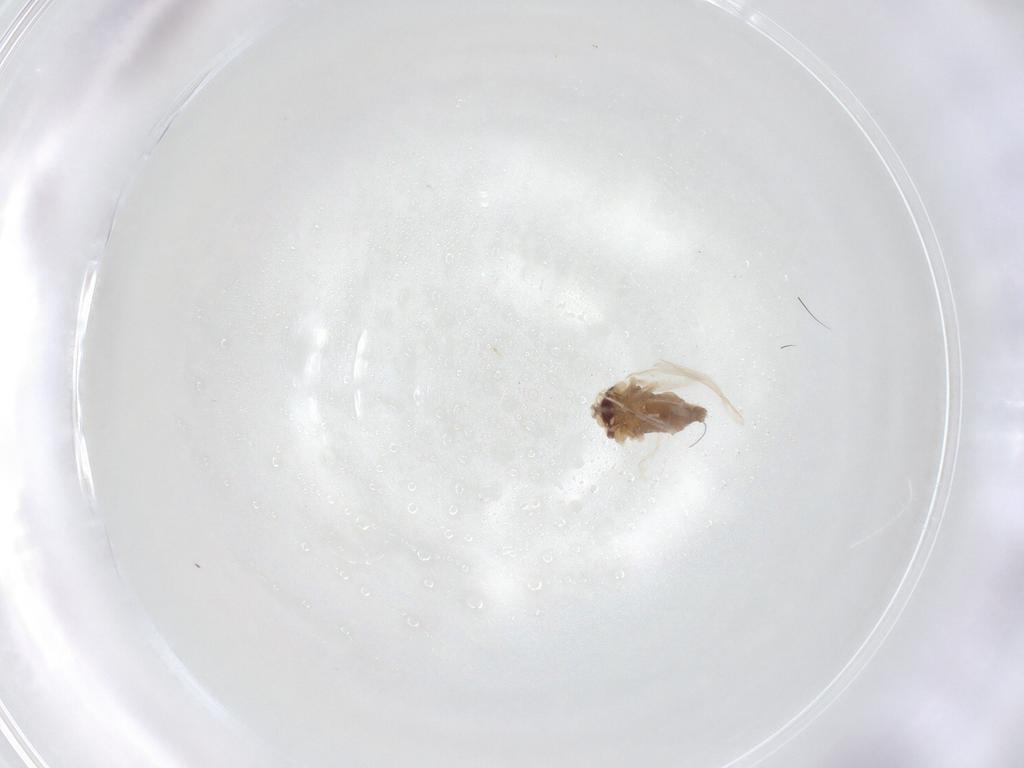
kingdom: Animalia
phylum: Arthropoda
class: Insecta
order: Hemiptera
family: Aleyrodidae
